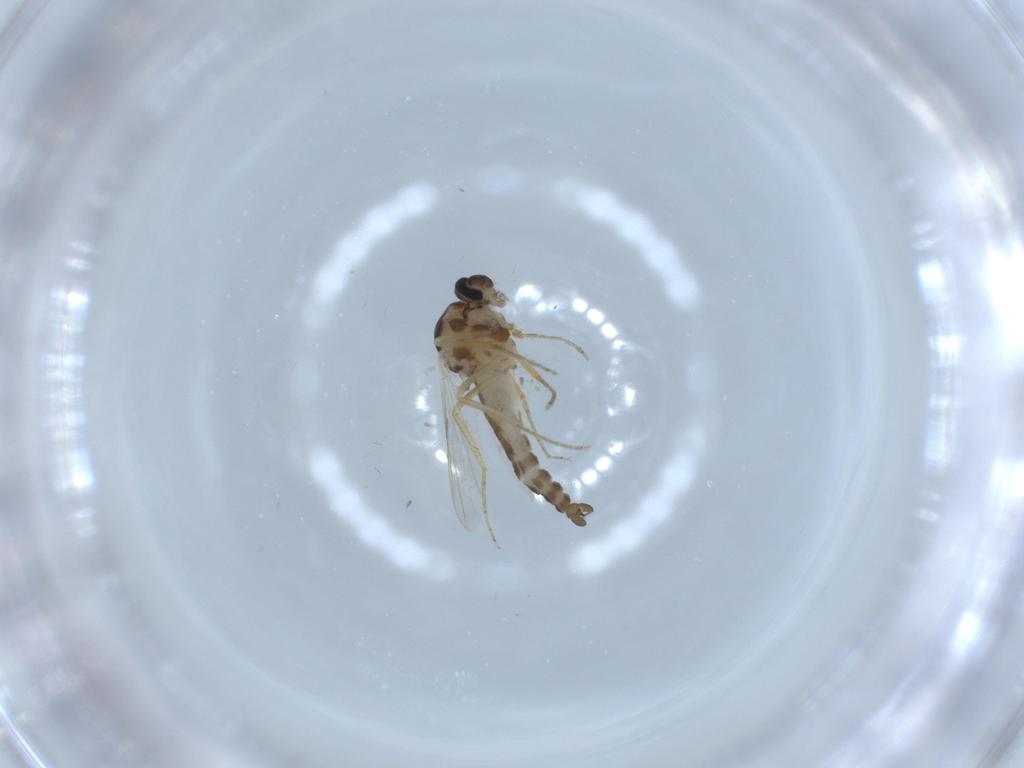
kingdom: Animalia
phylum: Arthropoda
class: Insecta
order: Diptera
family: Ceratopogonidae
